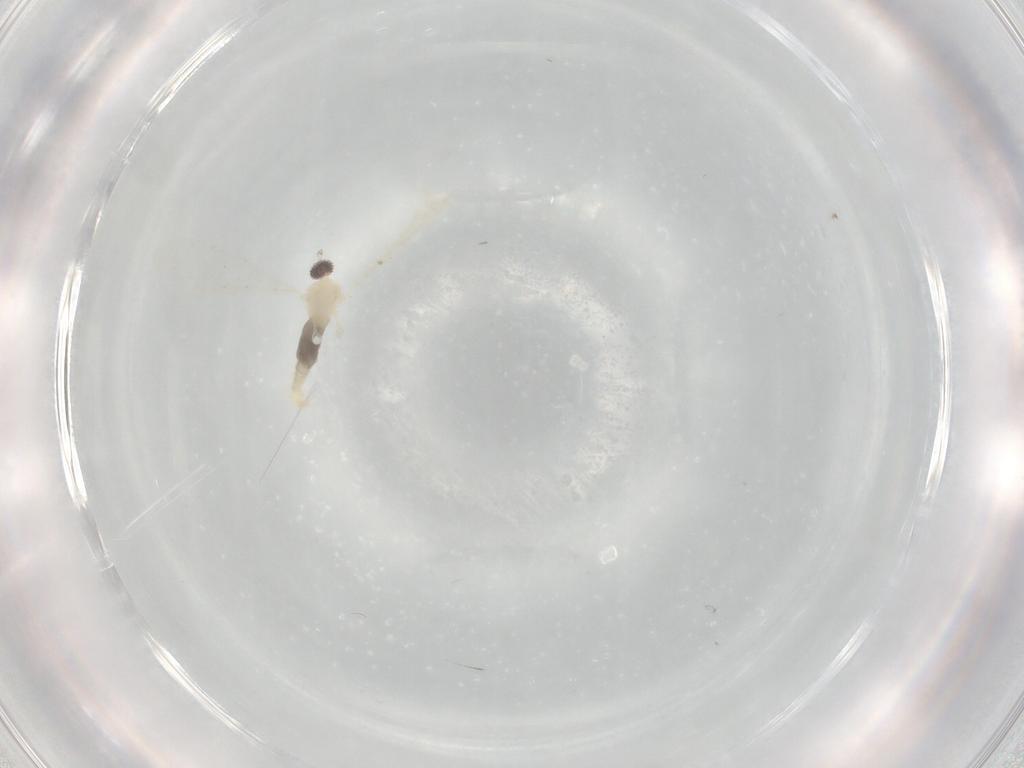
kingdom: Animalia
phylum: Arthropoda
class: Insecta
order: Diptera
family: Cecidomyiidae
